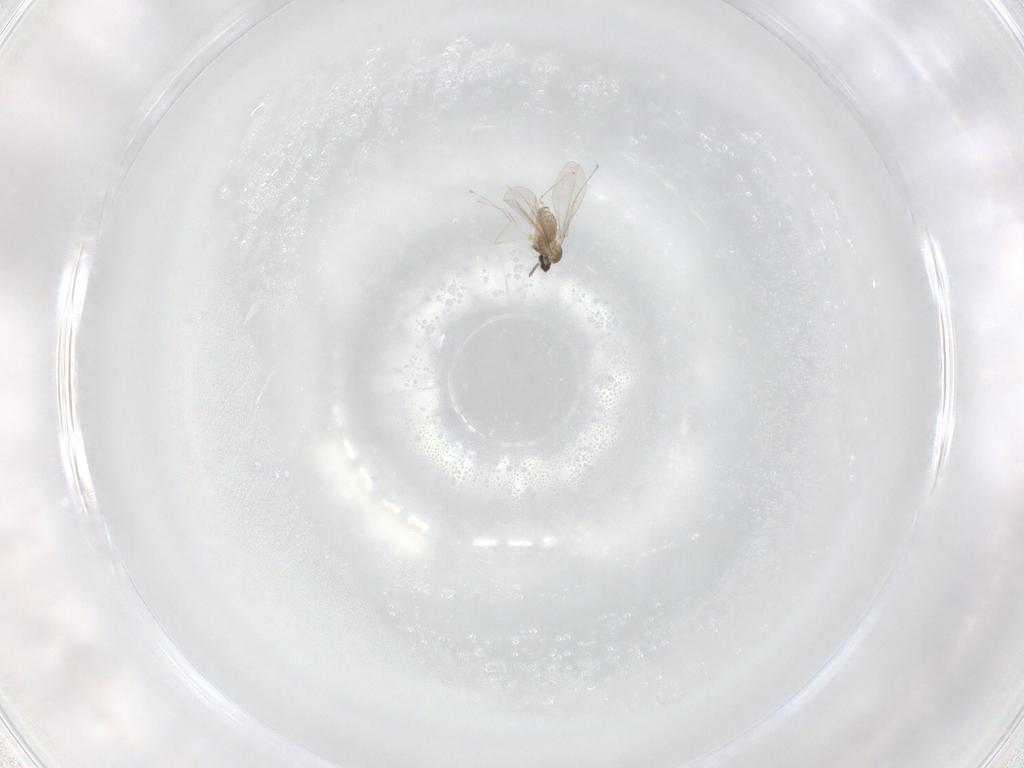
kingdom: Animalia
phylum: Arthropoda
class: Insecta
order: Diptera
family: Cecidomyiidae
